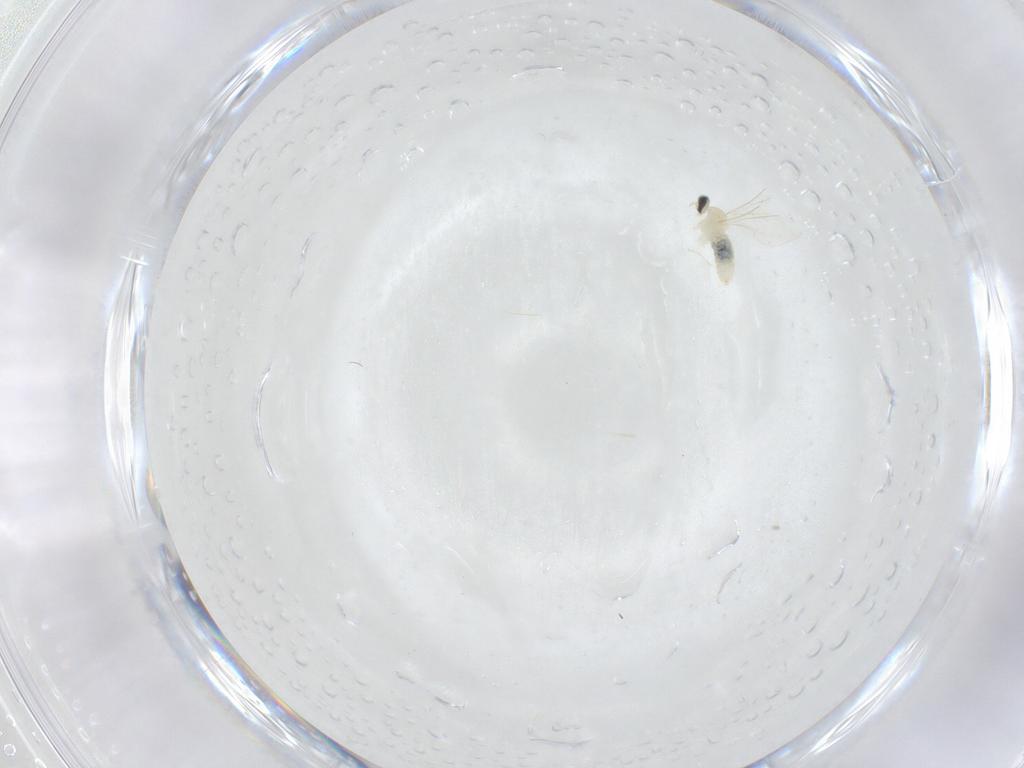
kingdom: Animalia
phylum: Arthropoda
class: Insecta
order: Diptera
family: Cecidomyiidae
